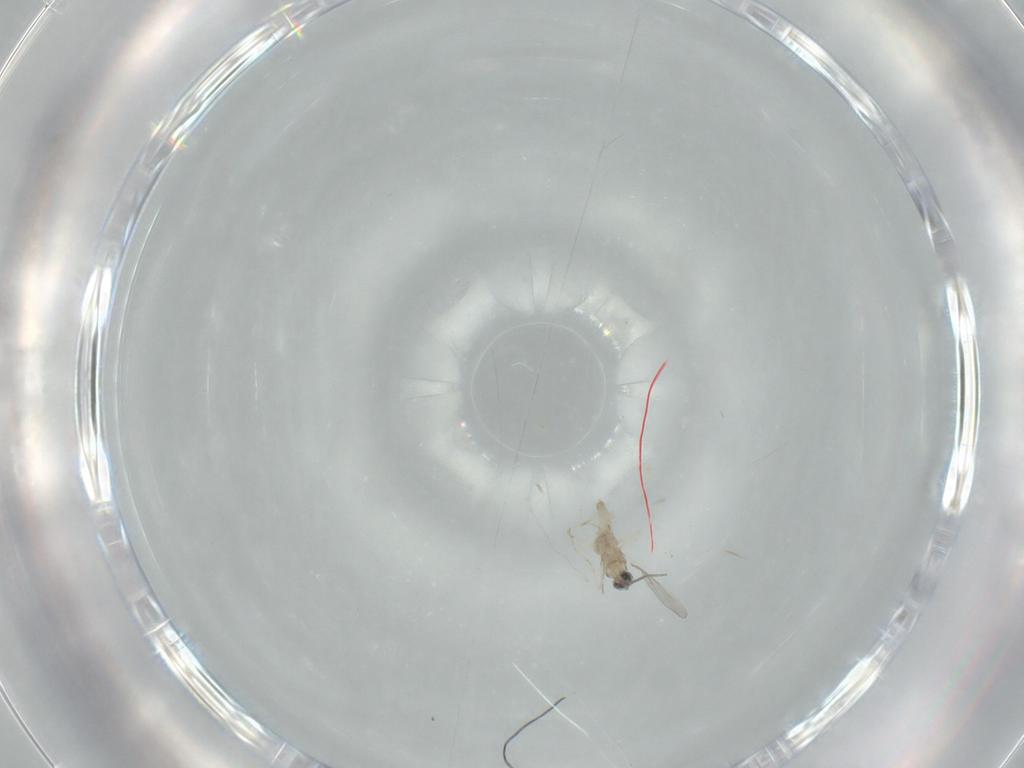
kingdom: Animalia
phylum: Arthropoda
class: Insecta
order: Diptera
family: Cecidomyiidae
